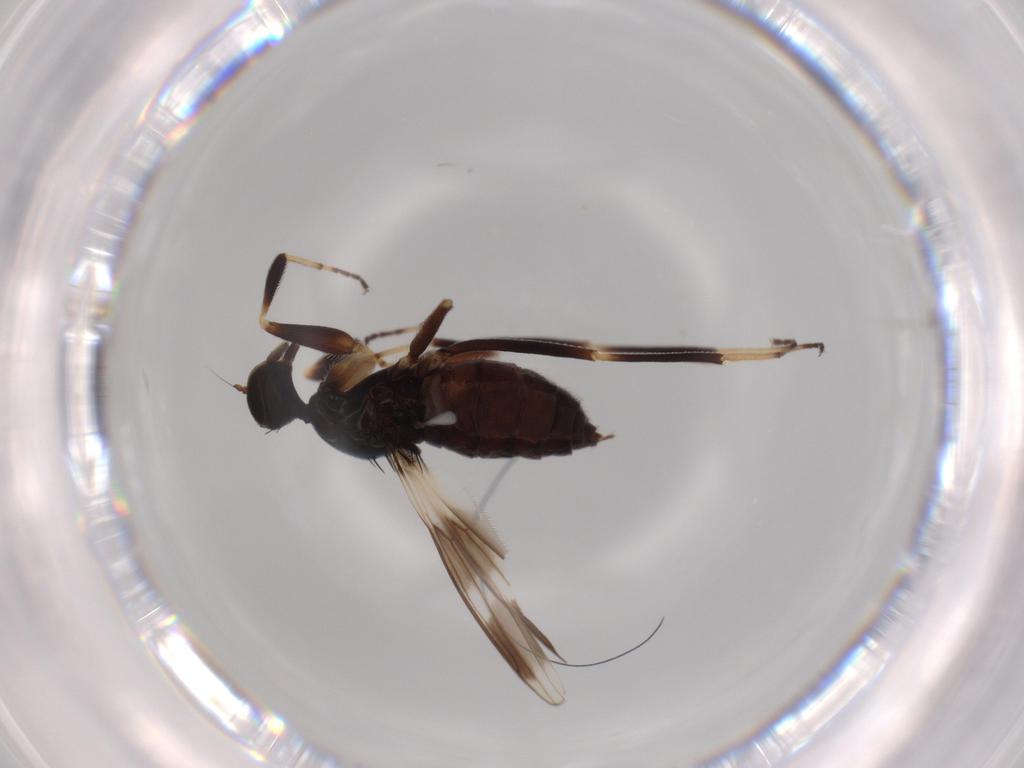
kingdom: Animalia
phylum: Arthropoda
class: Insecta
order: Diptera
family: Hybotidae
